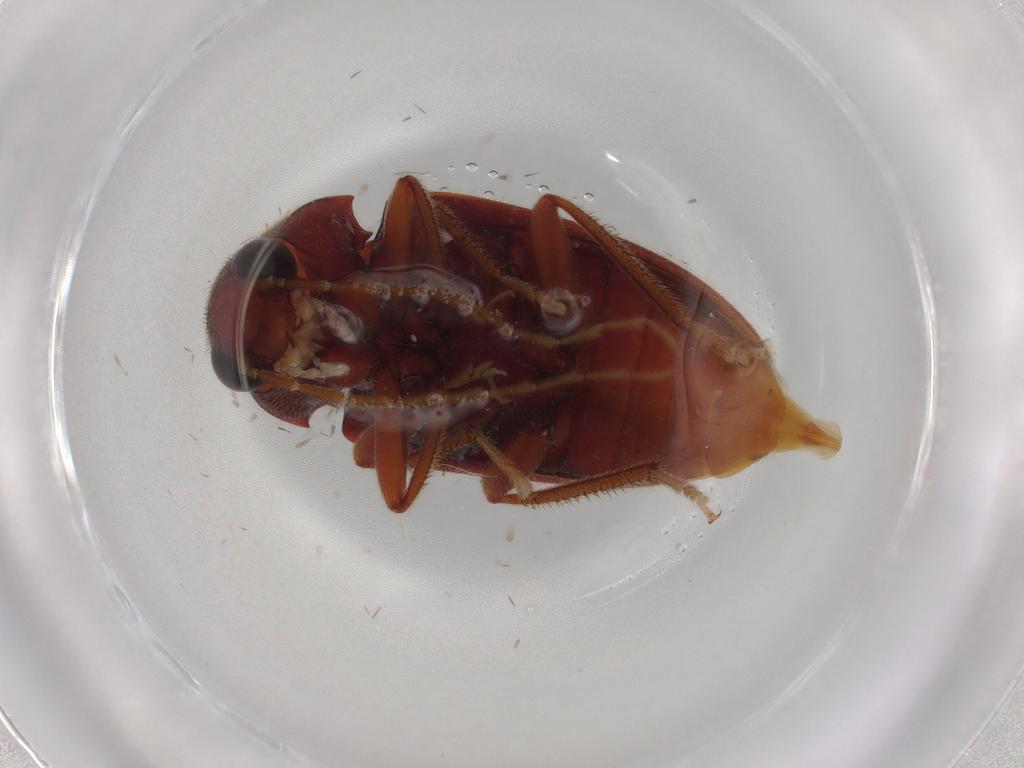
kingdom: Animalia
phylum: Arthropoda
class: Insecta
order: Coleoptera
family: Ptilodactylidae
